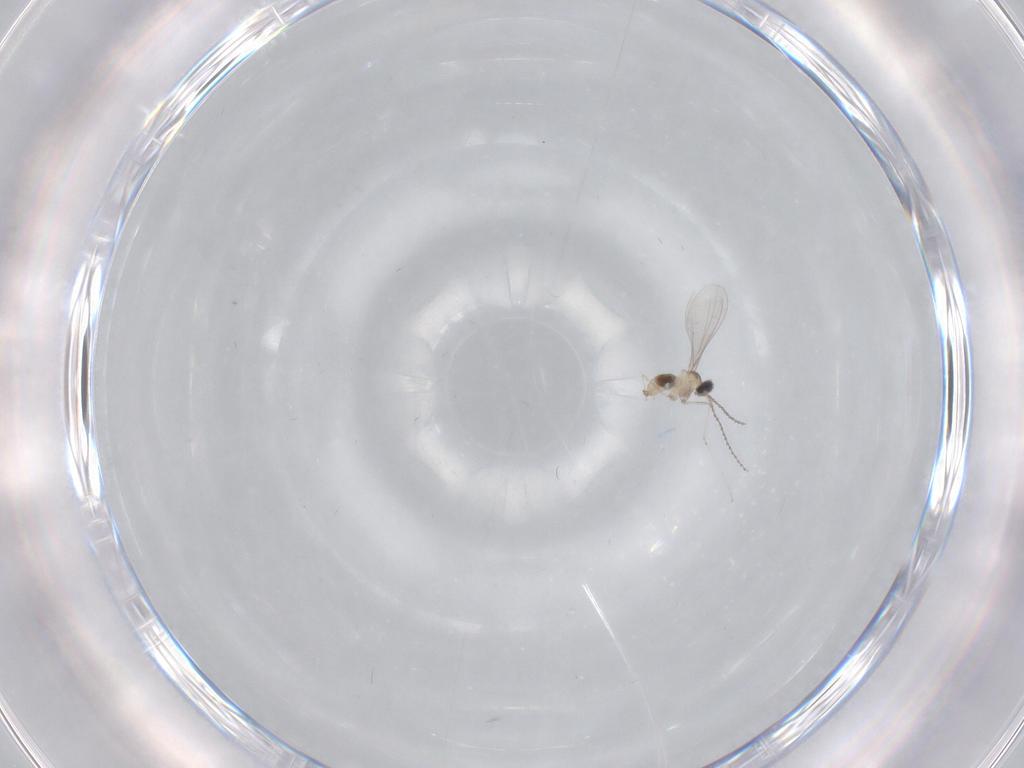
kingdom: Animalia
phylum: Arthropoda
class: Insecta
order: Diptera
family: Cecidomyiidae
